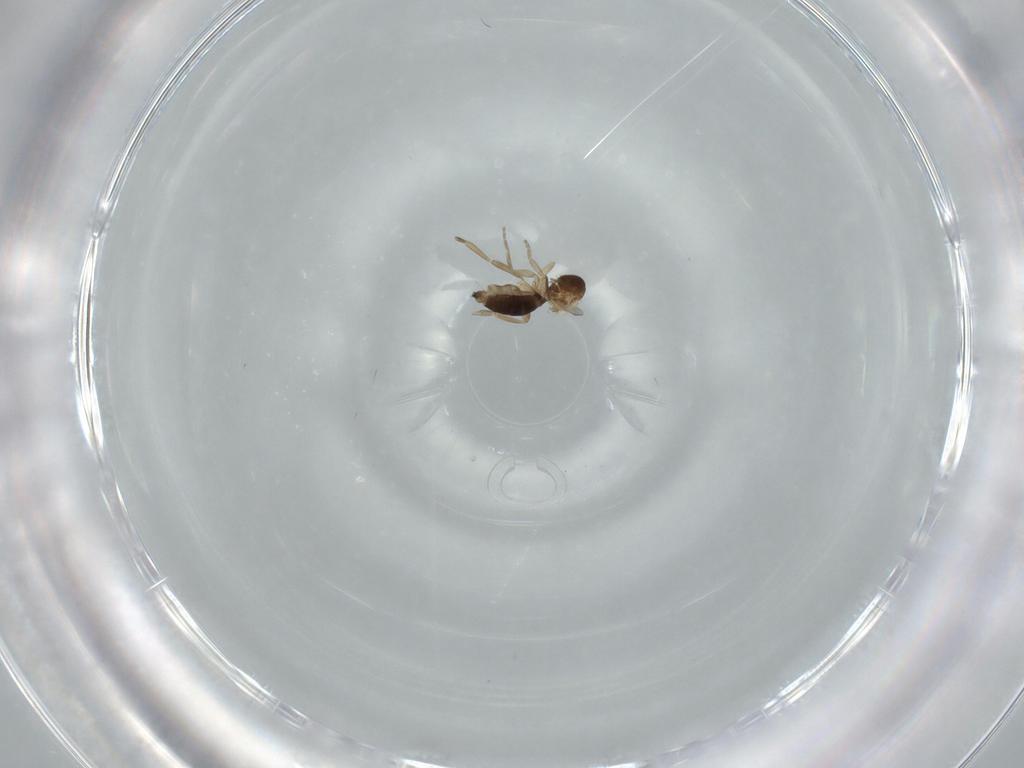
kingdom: Animalia
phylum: Arthropoda
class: Insecta
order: Diptera
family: Phoridae
